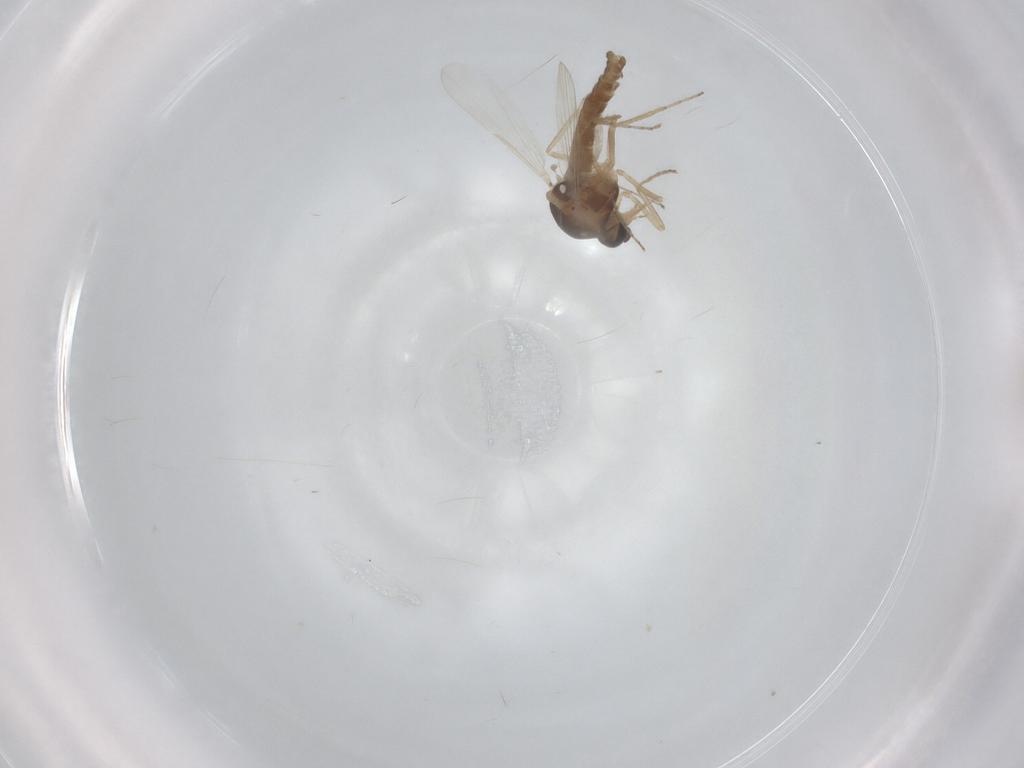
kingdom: Animalia
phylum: Arthropoda
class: Insecta
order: Diptera
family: Ceratopogonidae
